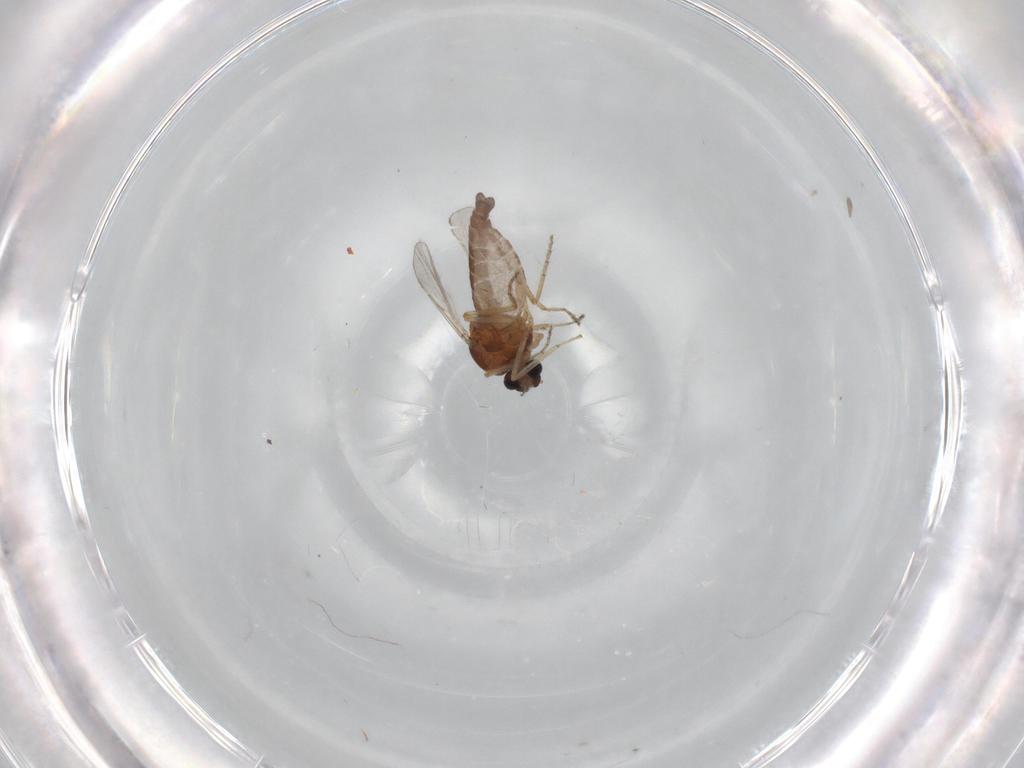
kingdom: Animalia
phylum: Arthropoda
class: Insecta
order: Diptera
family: Ceratopogonidae
